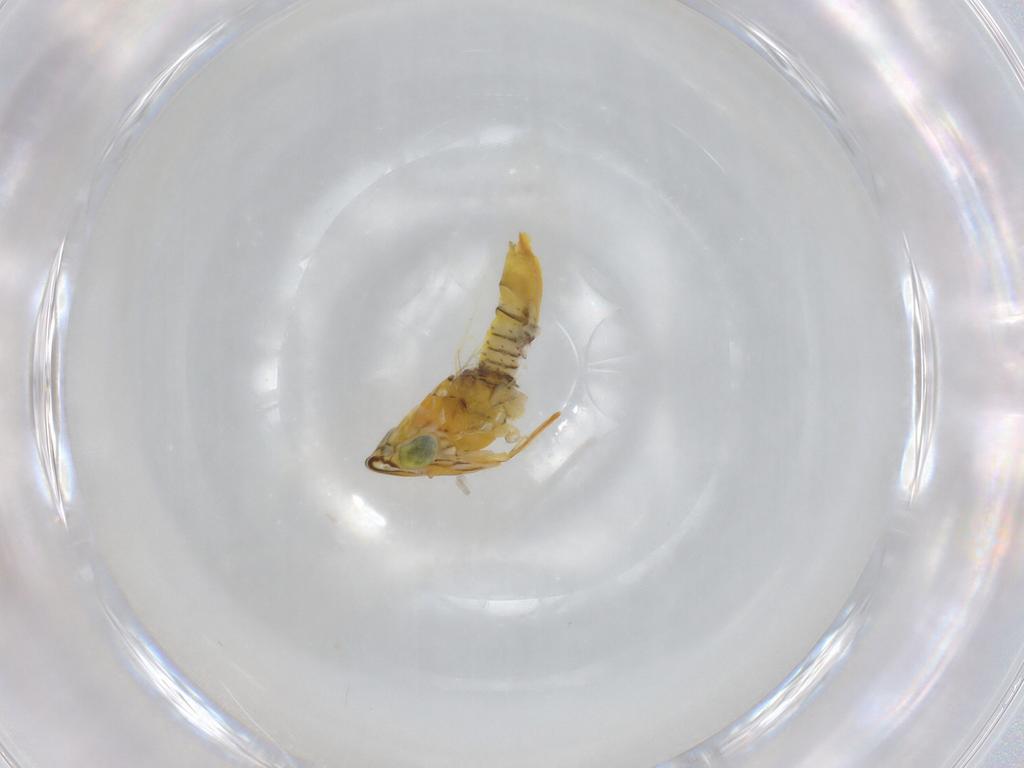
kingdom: Animalia
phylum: Arthropoda
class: Insecta
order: Hemiptera
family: Cicadellidae
